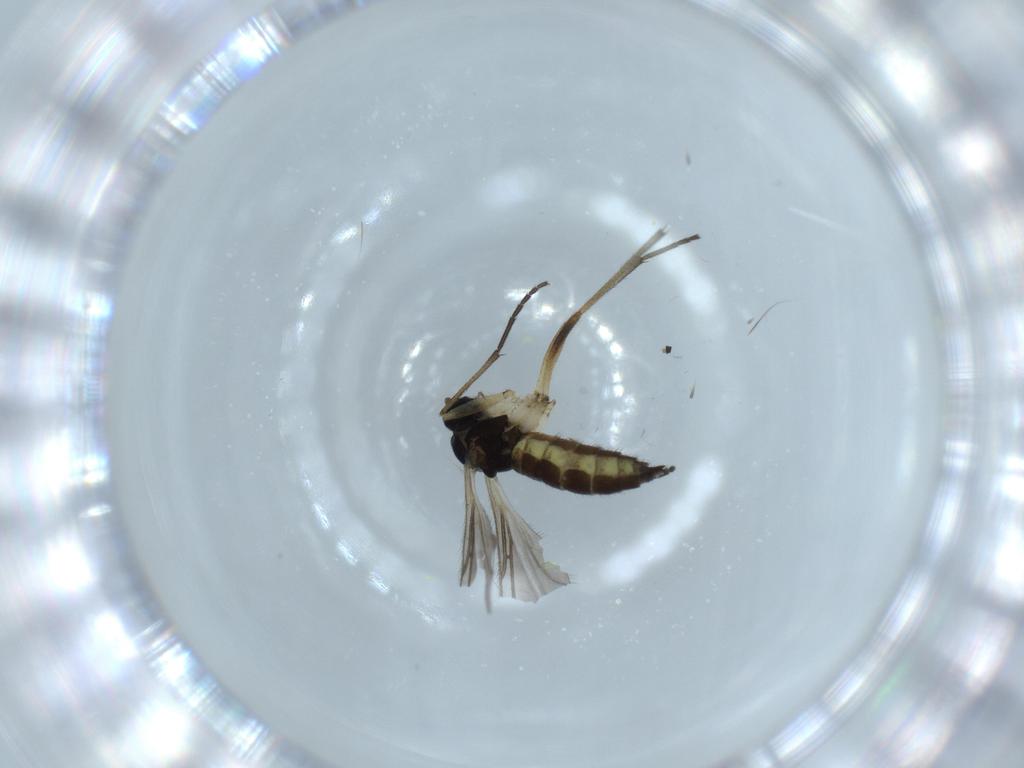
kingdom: Animalia
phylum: Arthropoda
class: Insecta
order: Diptera
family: Sciaridae
